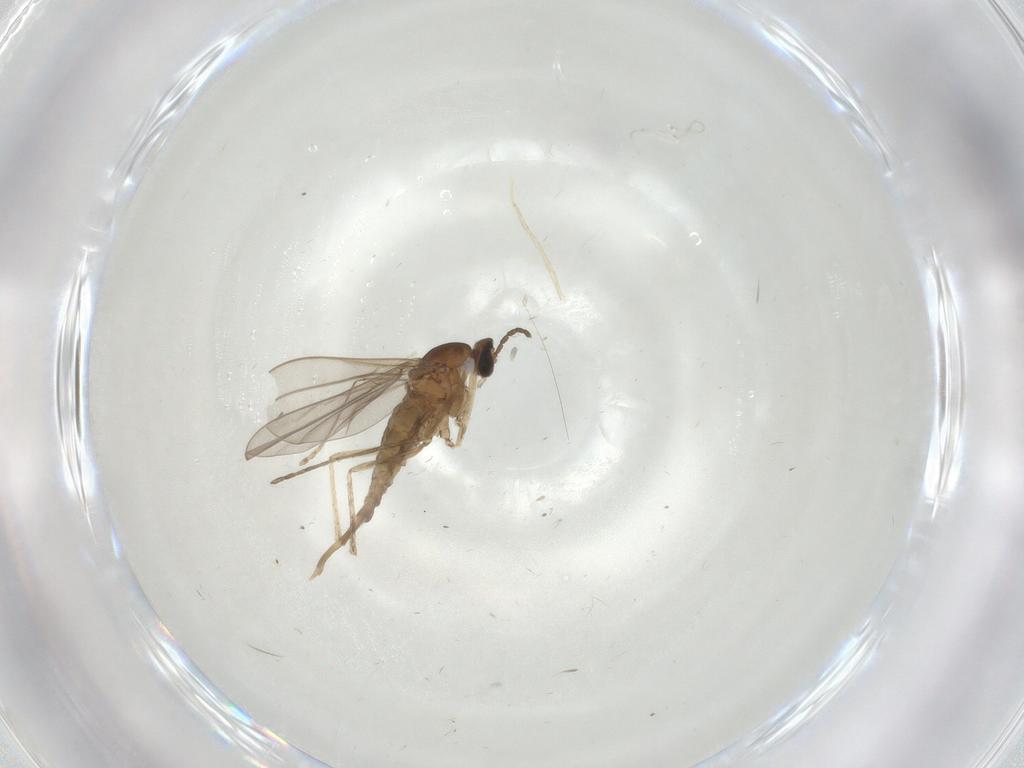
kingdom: Animalia
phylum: Arthropoda
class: Insecta
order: Diptera
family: Cecidomyiidae
